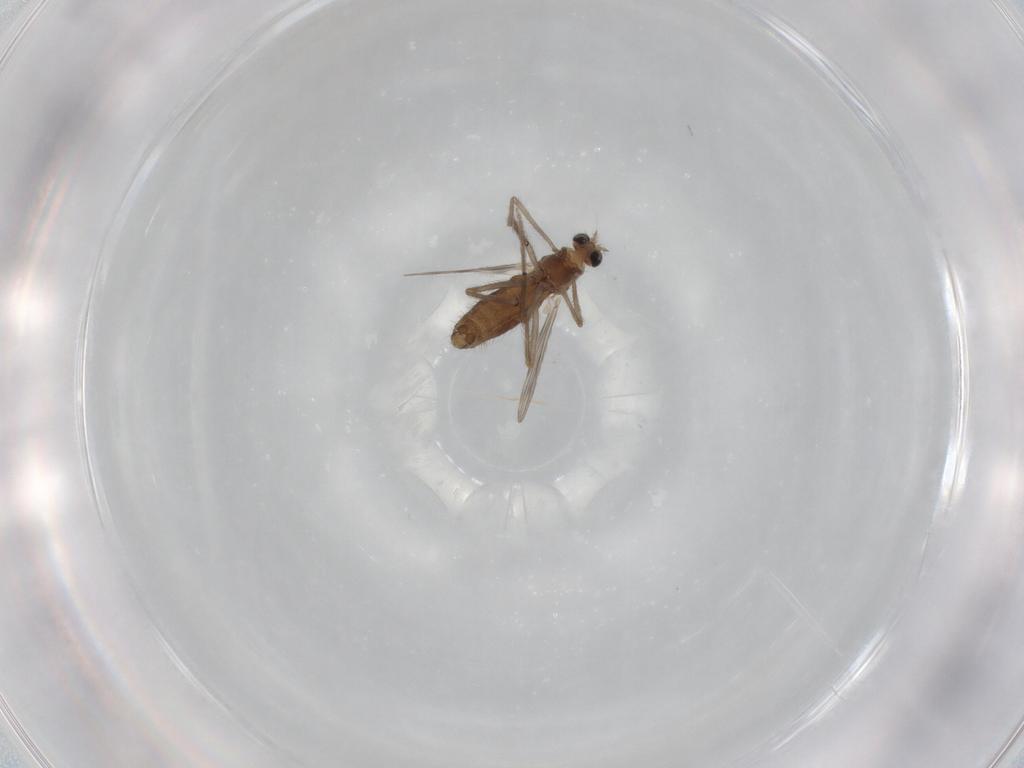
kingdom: Animalia
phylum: Arthropoda
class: Insecta
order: Diptera
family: Chironomidae
